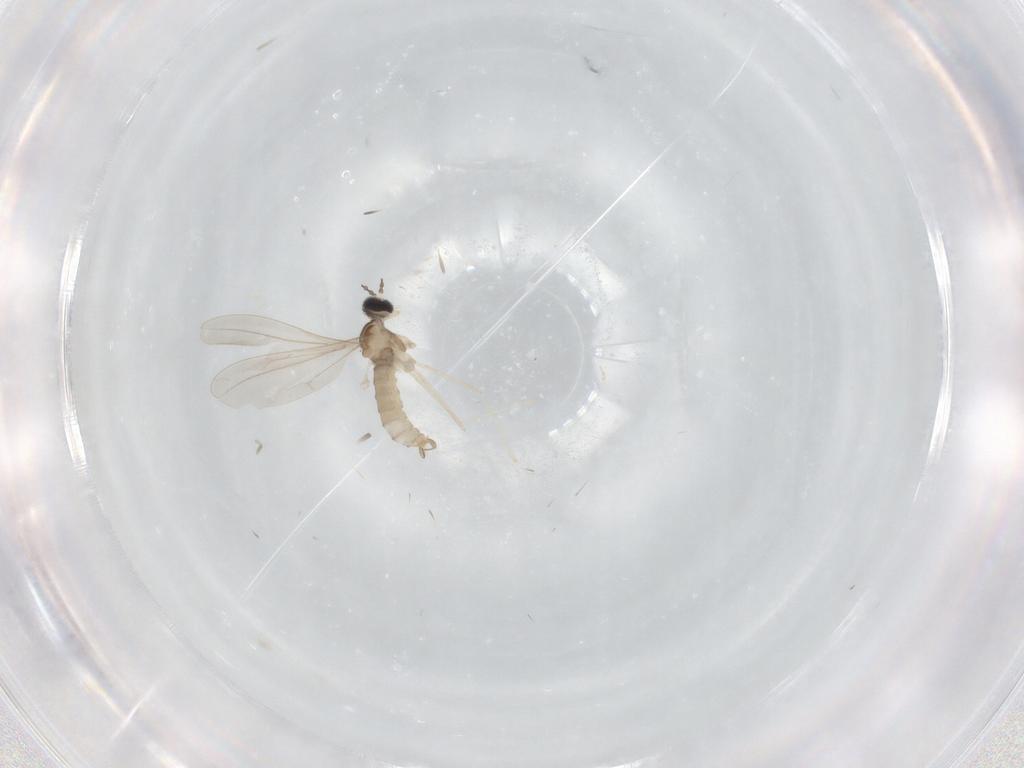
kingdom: Animalia
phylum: Arthropoda
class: Insecta
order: Diptera
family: Cecidomyiidae
